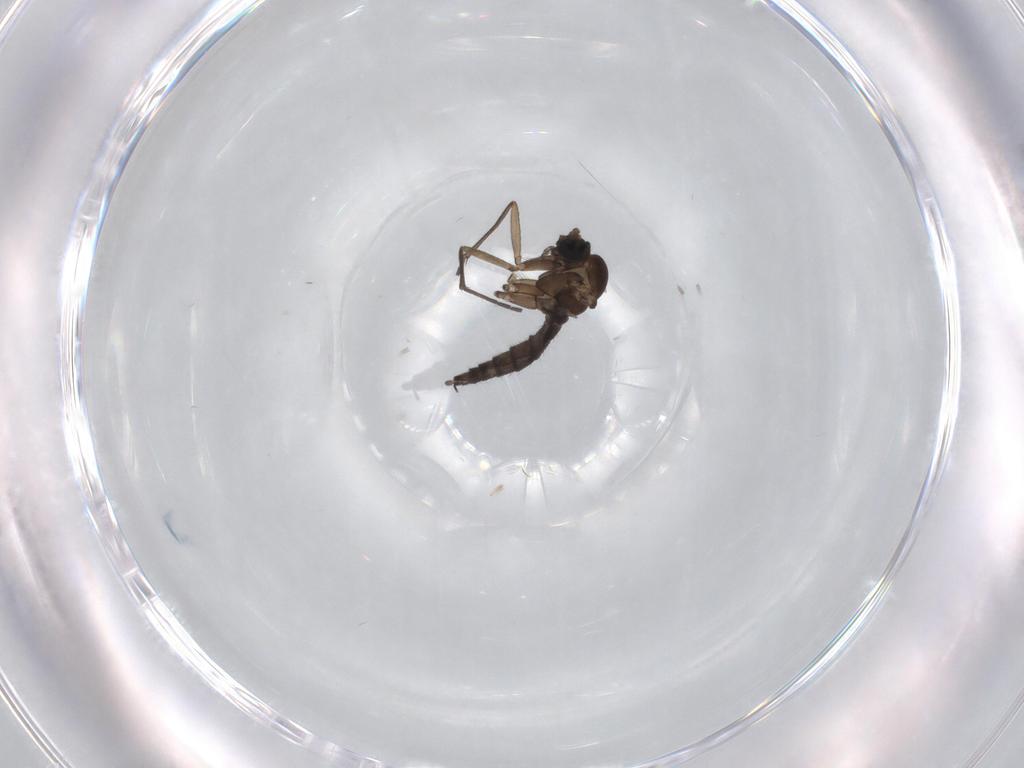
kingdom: Animalia
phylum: Arthropoda
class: Insecta
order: Diptera
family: Sciaridae
